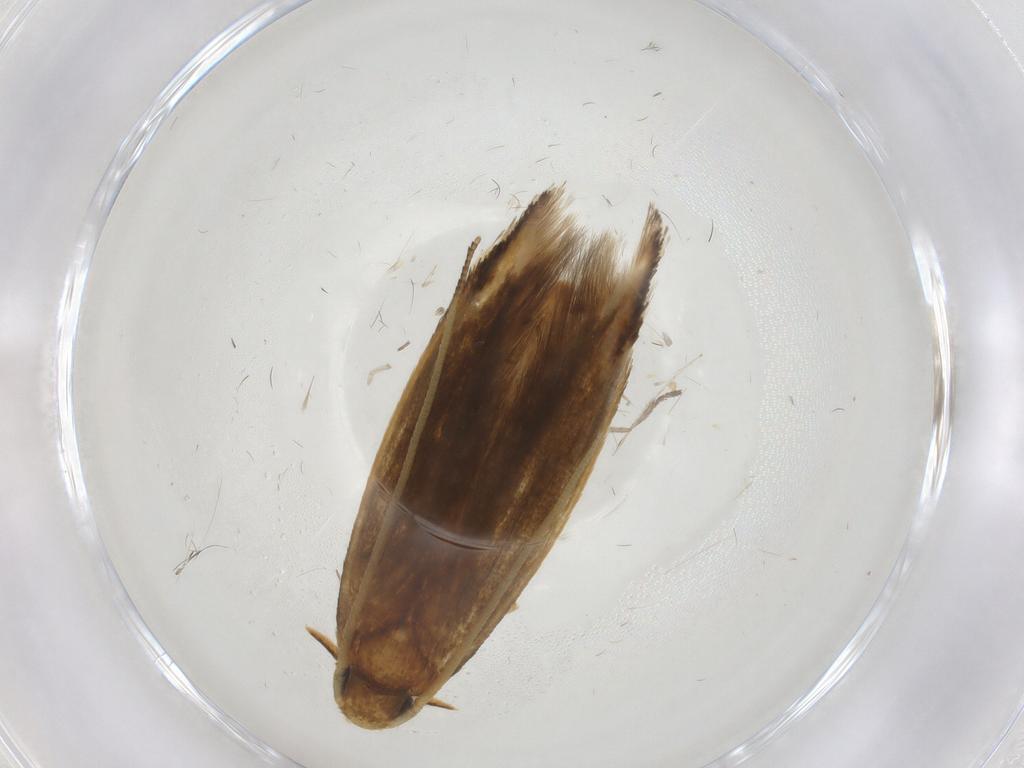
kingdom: Animalia
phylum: Arthropoda
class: Insecta
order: Lepidoptera
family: Tineidae
